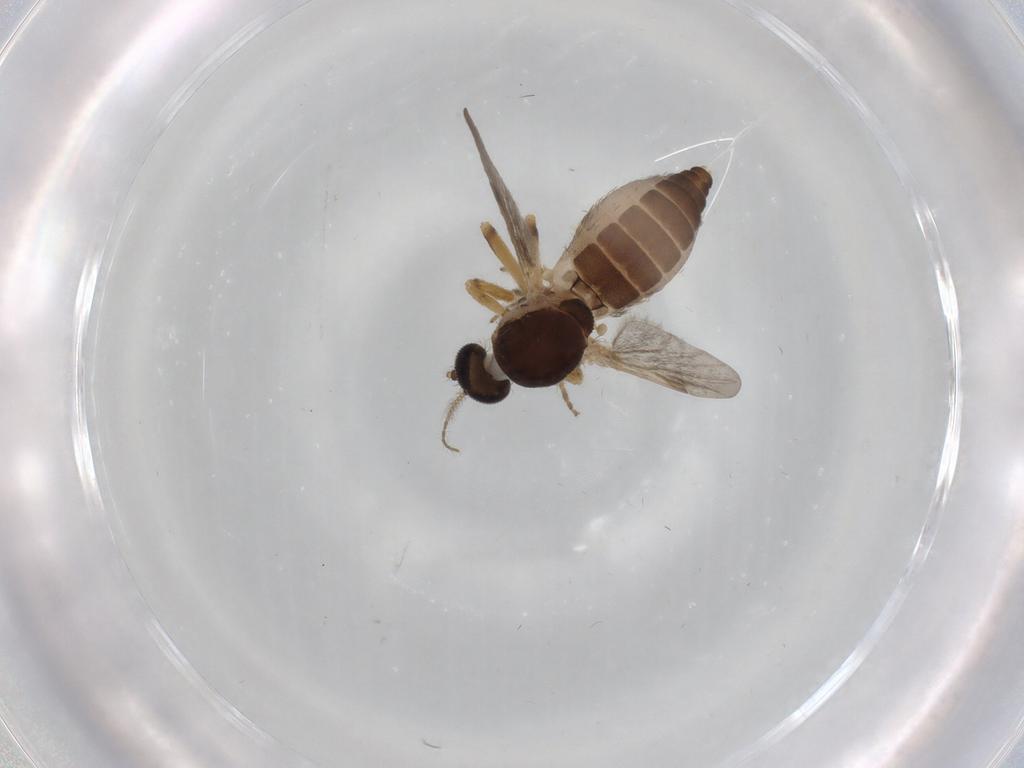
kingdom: Animalia
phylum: Arthropoda
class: Insecta
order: Diptera
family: Ceratopogonidae
